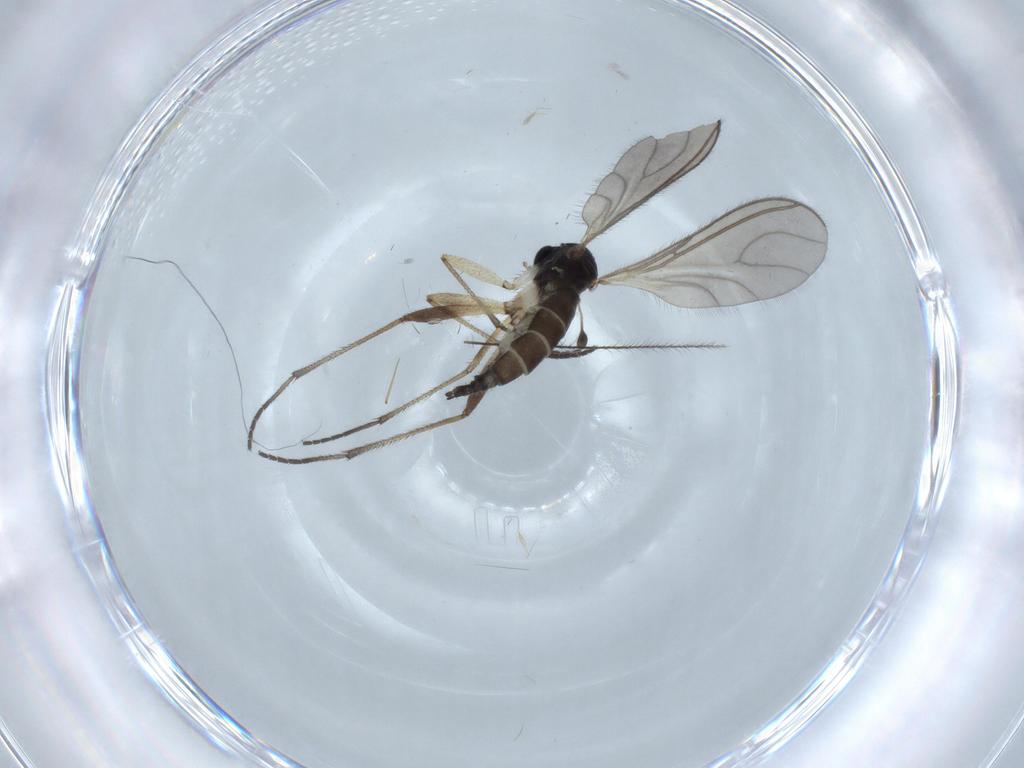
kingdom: Animalia
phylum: Arthropoda
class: Insecta
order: Diptera
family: Sciaridae
